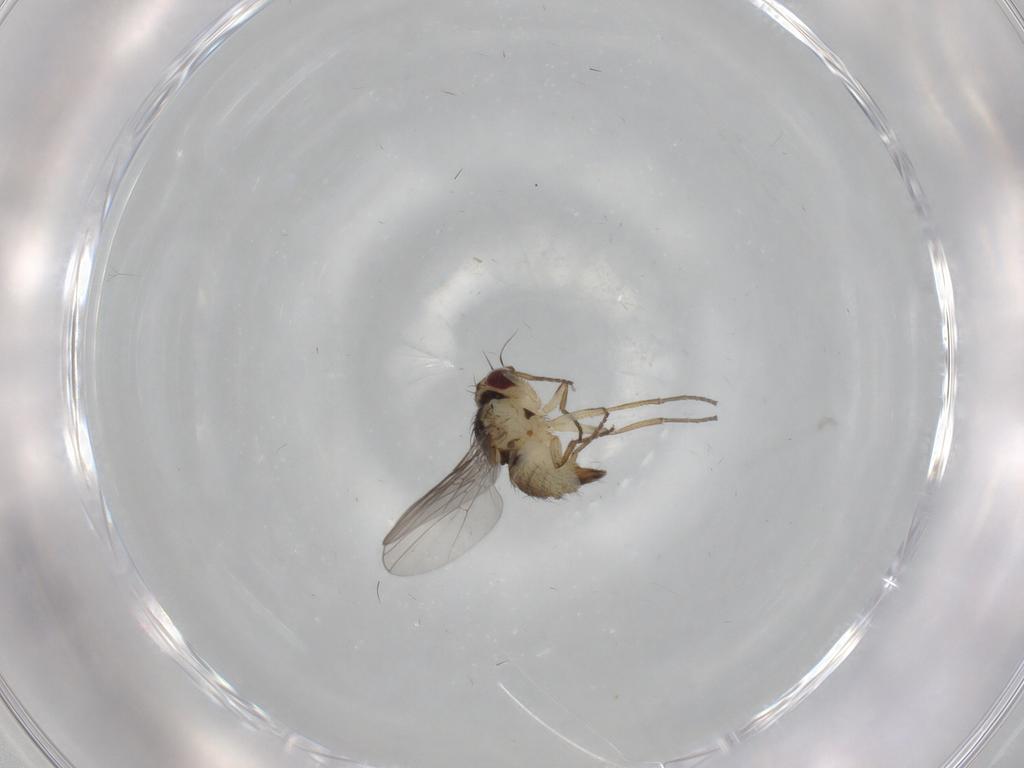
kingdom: Animalia
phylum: Arthropoda
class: Insecta
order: Diptera
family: Agromyzidae
